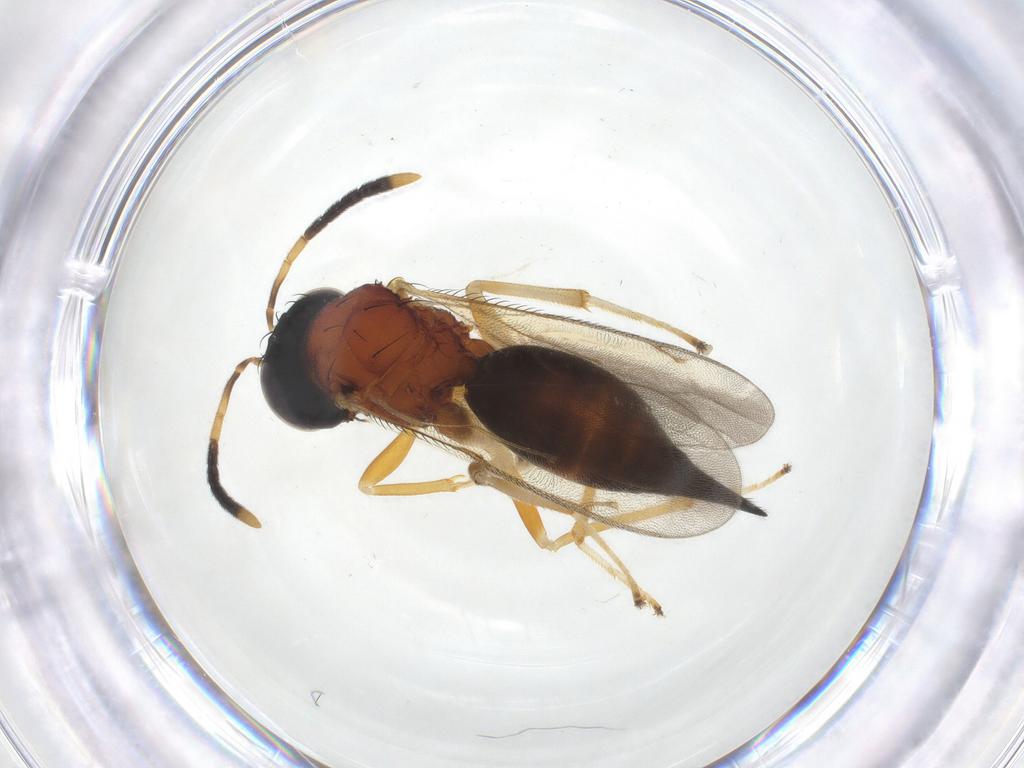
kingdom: Animalia
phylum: Arthropoda
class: Insecta
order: Hymenoptera
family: Diparidae
